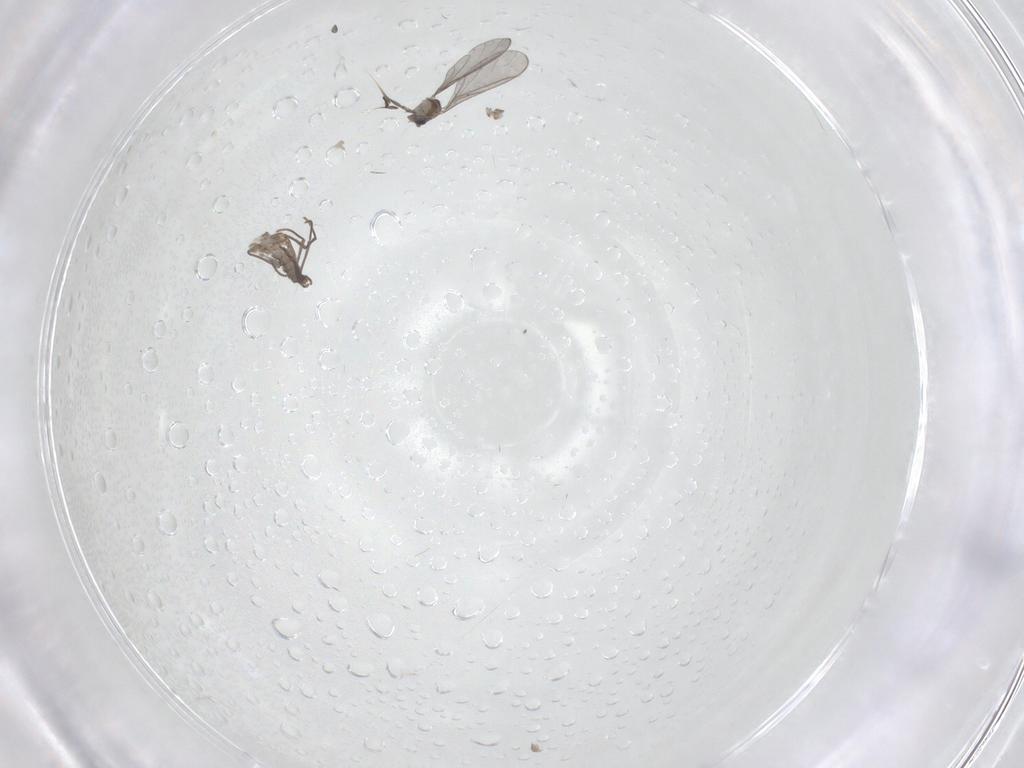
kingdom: Animalia
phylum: Arthropoda
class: Insecta
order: Diptera
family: Sciaridae
